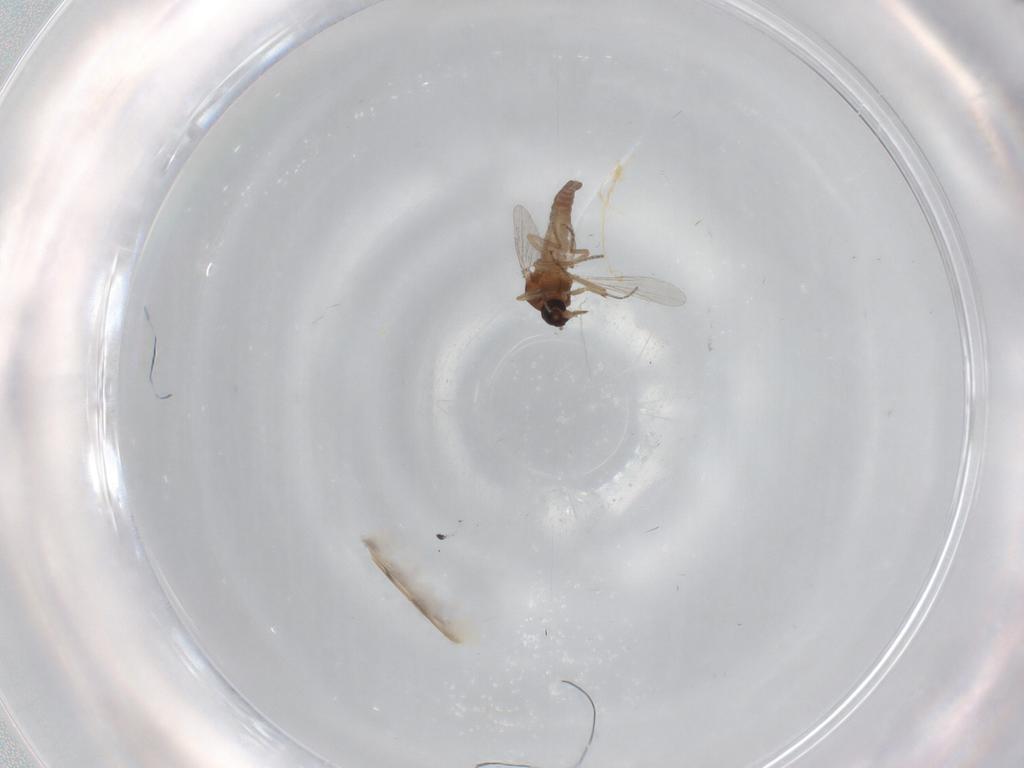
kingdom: Animalia
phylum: Arthropoda
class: Insecta
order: Diptera
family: Ceratopogonidae
